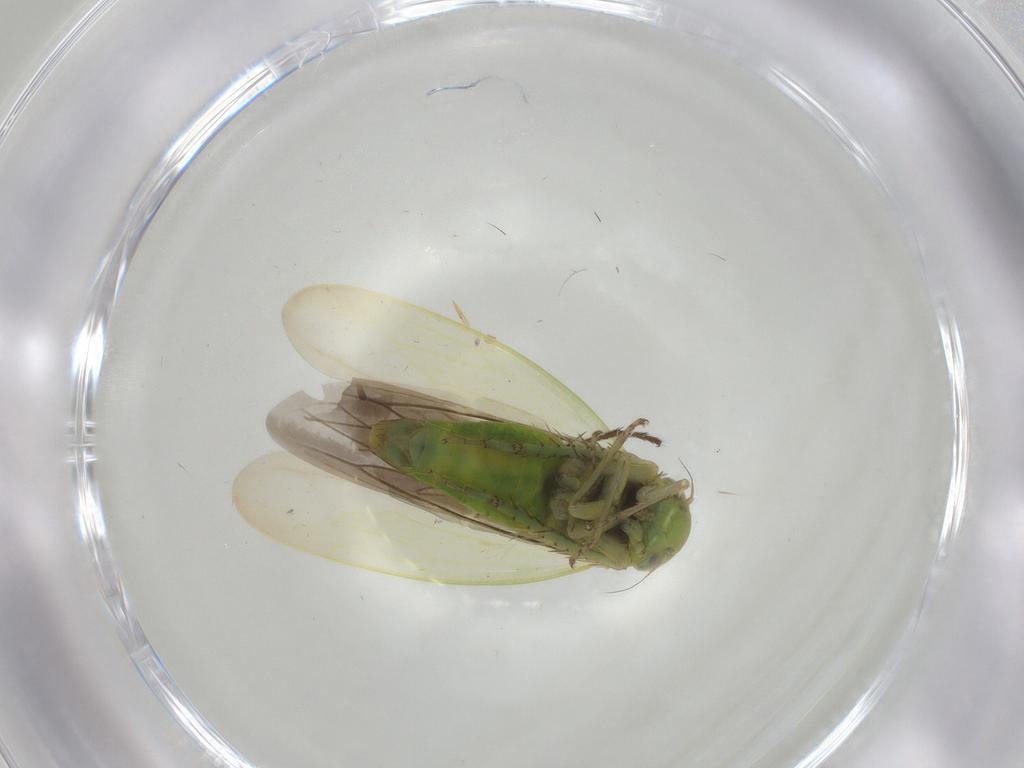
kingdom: Animalia
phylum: Arthropoda
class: Insecta
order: Hemiptera
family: Cicadellidae
